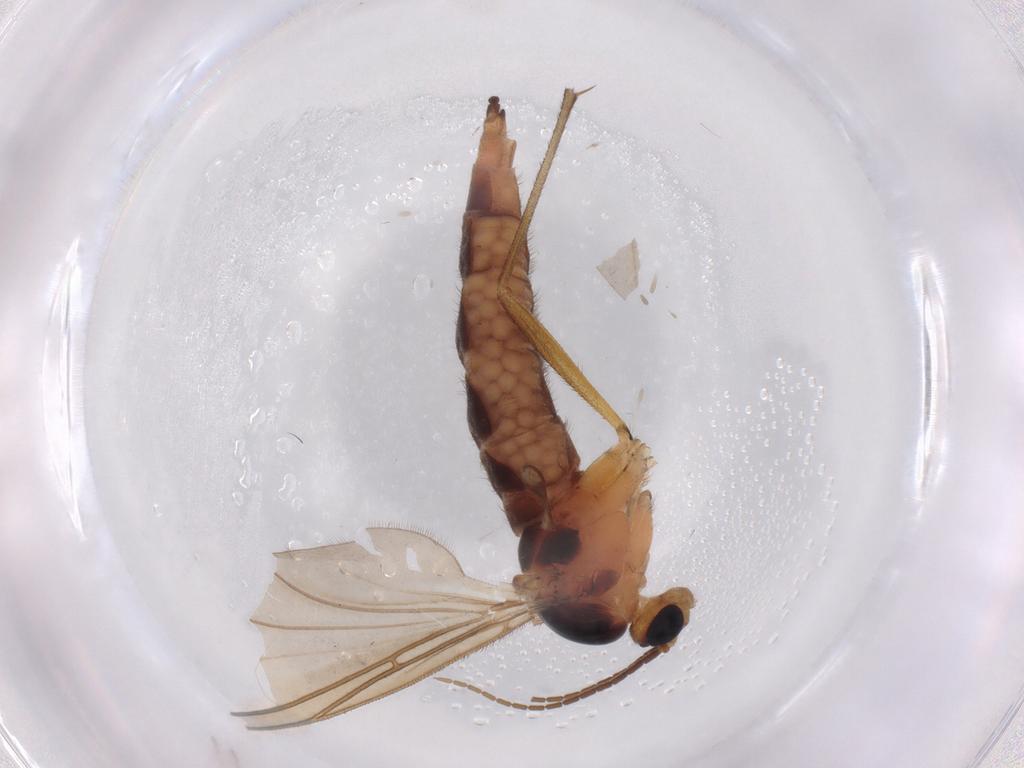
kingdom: Animalia
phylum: Arthropoda
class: Insecta
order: Diptera
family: Sciaridae
